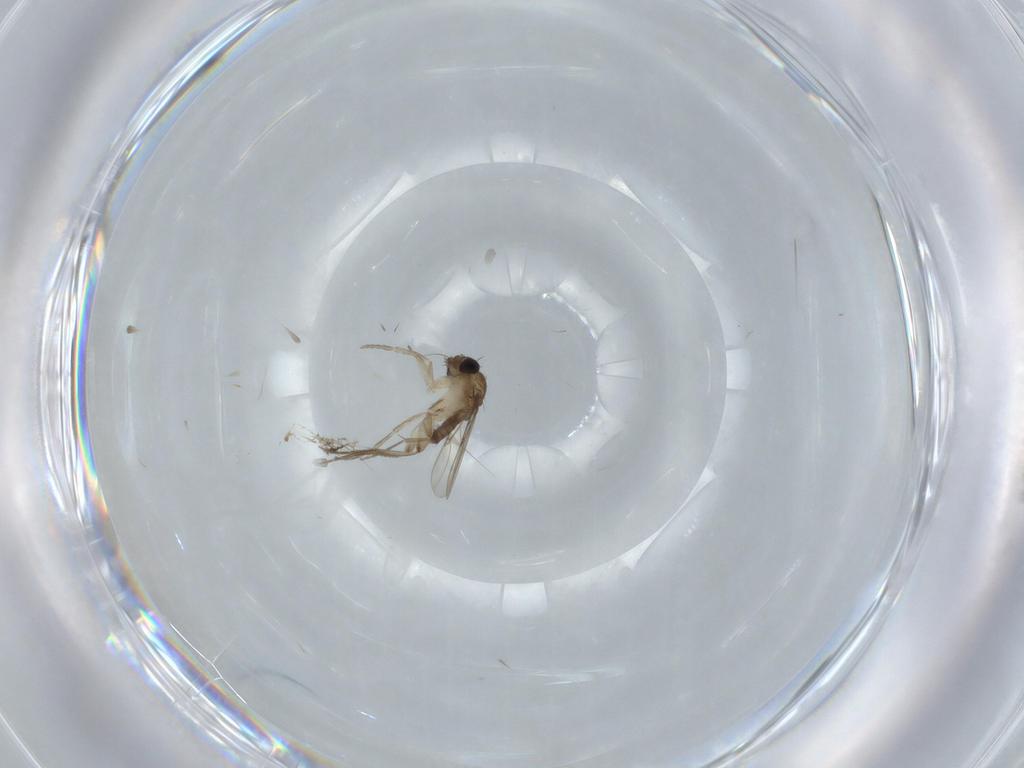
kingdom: Animalia
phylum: Arthropoda
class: Insecta
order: Diptera
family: Phoridae
